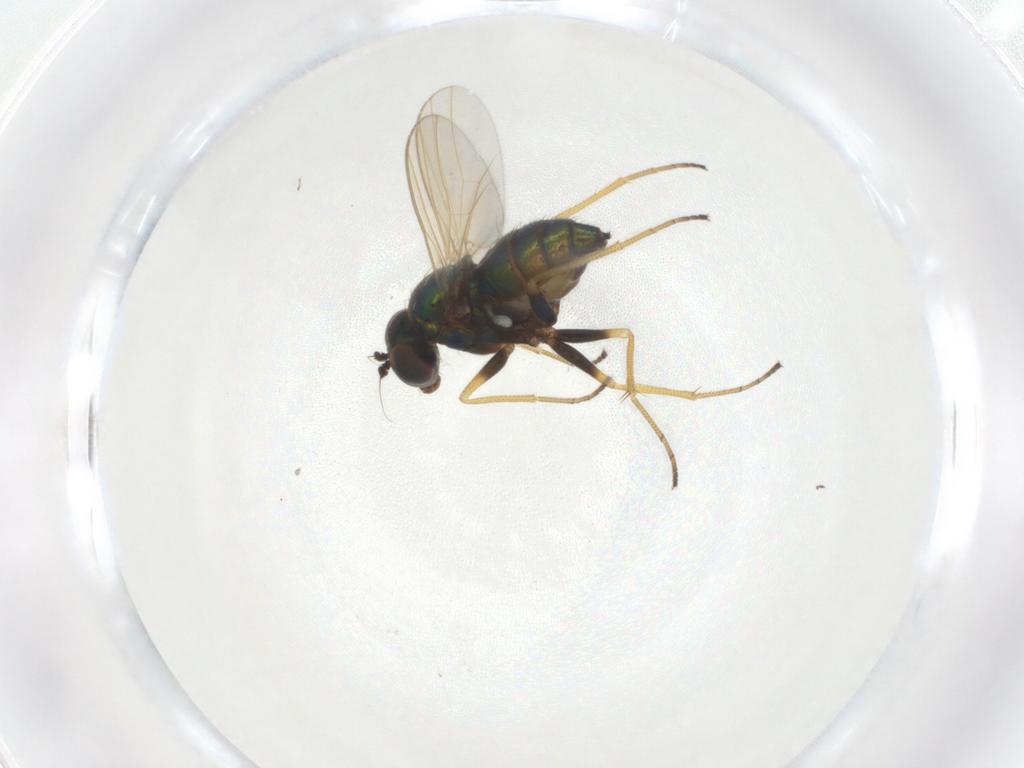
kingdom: Animalia
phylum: Arthropoda
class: Insecta
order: Diptera
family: Dolichopodidae
